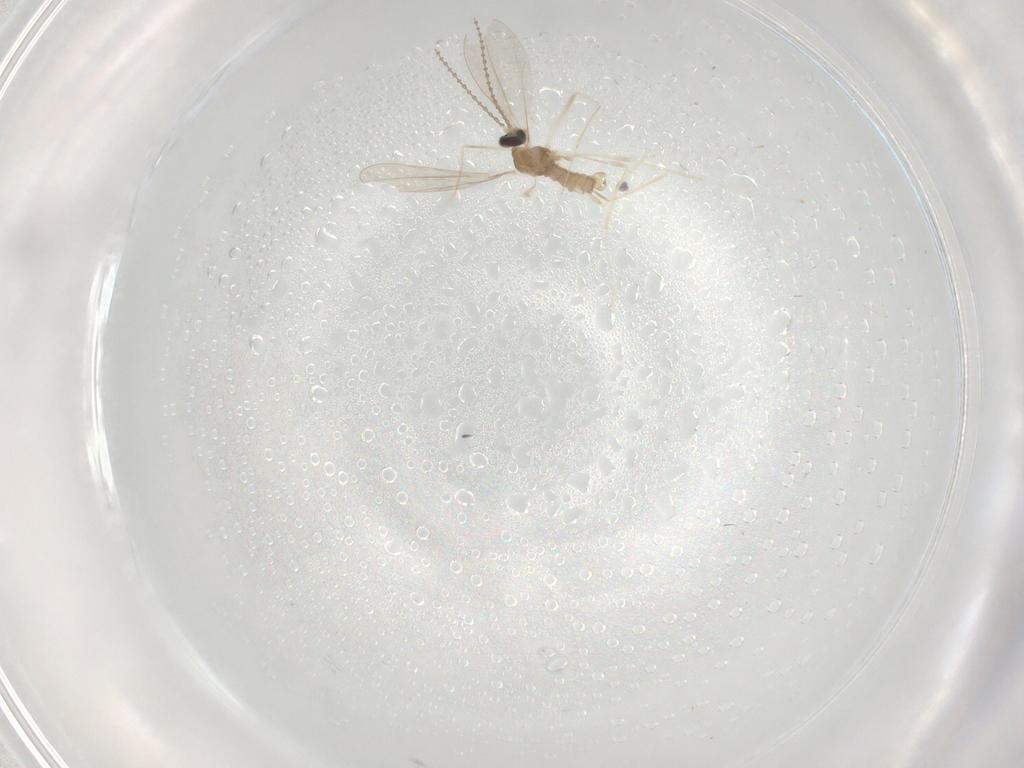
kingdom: Animalia
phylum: Arthropoda
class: Insecta
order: Diptera
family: Cecidomyiidae
